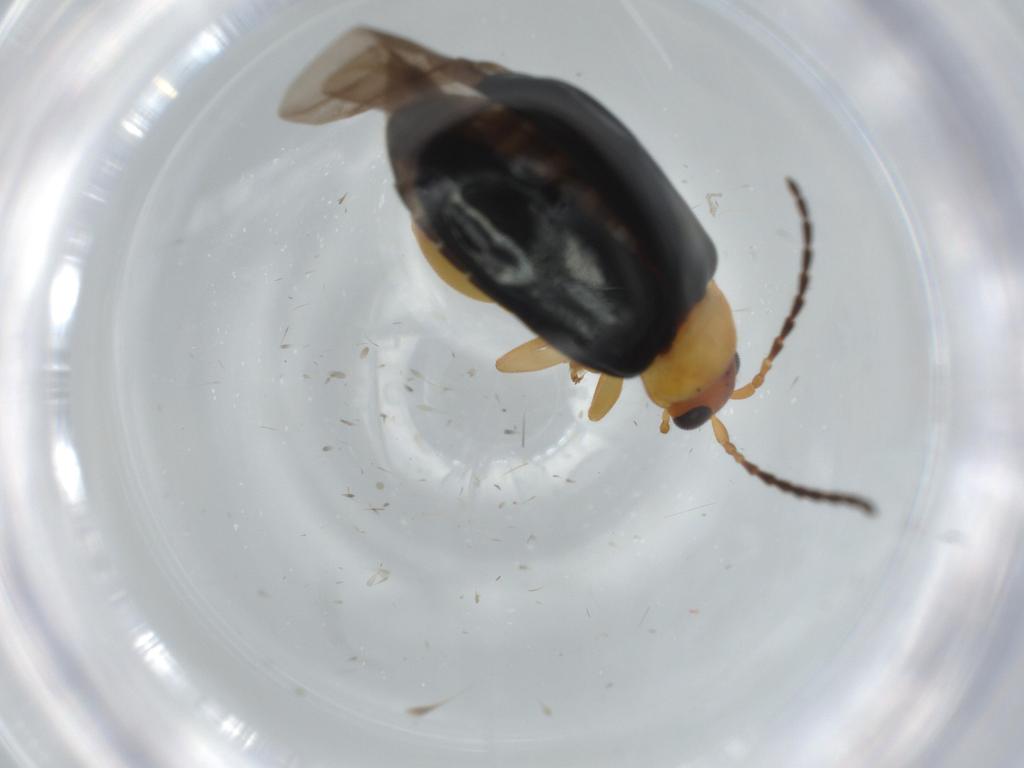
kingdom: Animalia
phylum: Arthropoda
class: Insecta
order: Coleoptera
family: Chrysomelidae
